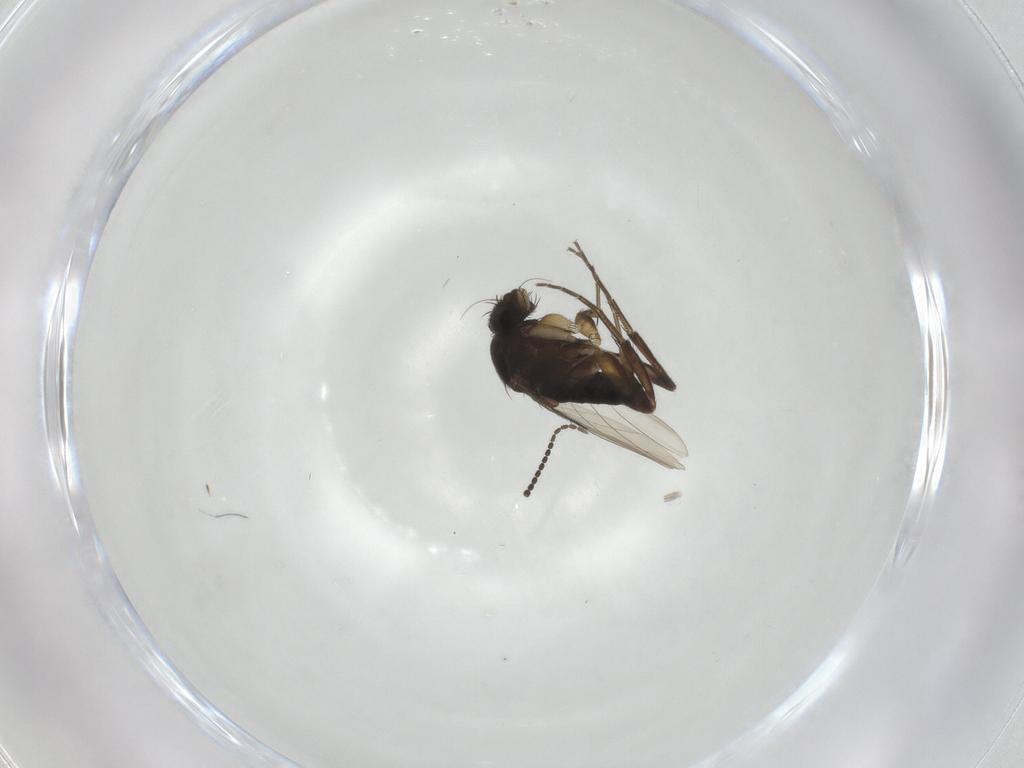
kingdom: Animalia
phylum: Arthropoda
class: Insecta
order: Diptera
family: Phoridae
